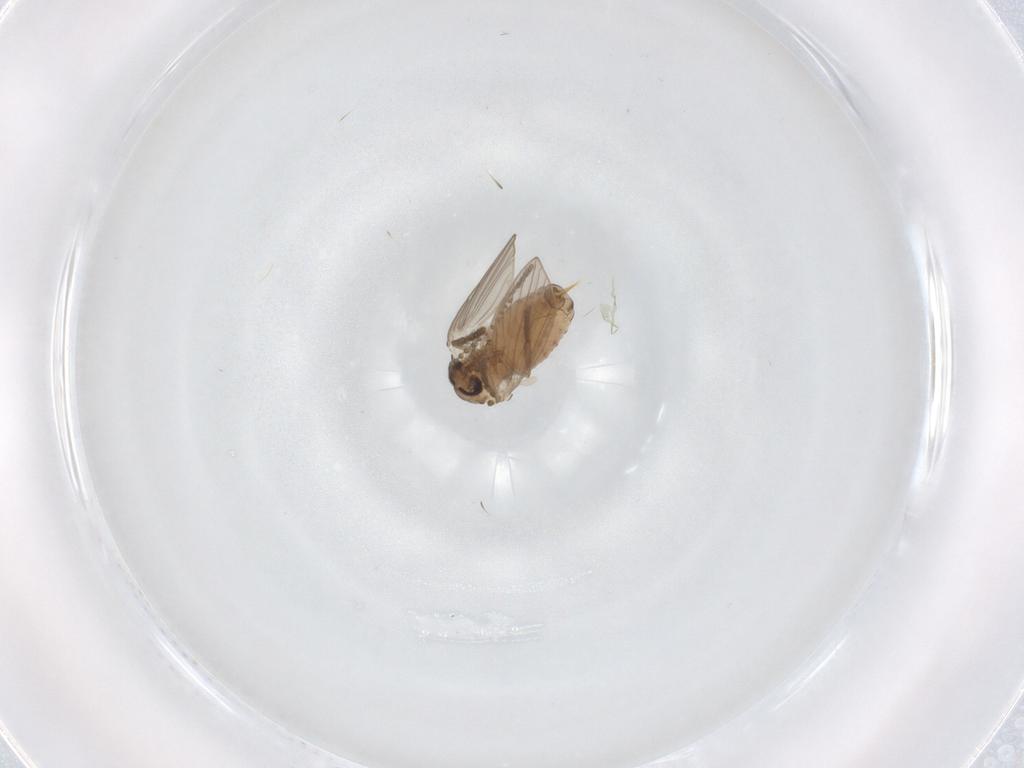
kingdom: Animalia
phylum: Arthropoda
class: Insecta
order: Diptera
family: Psychodidae
